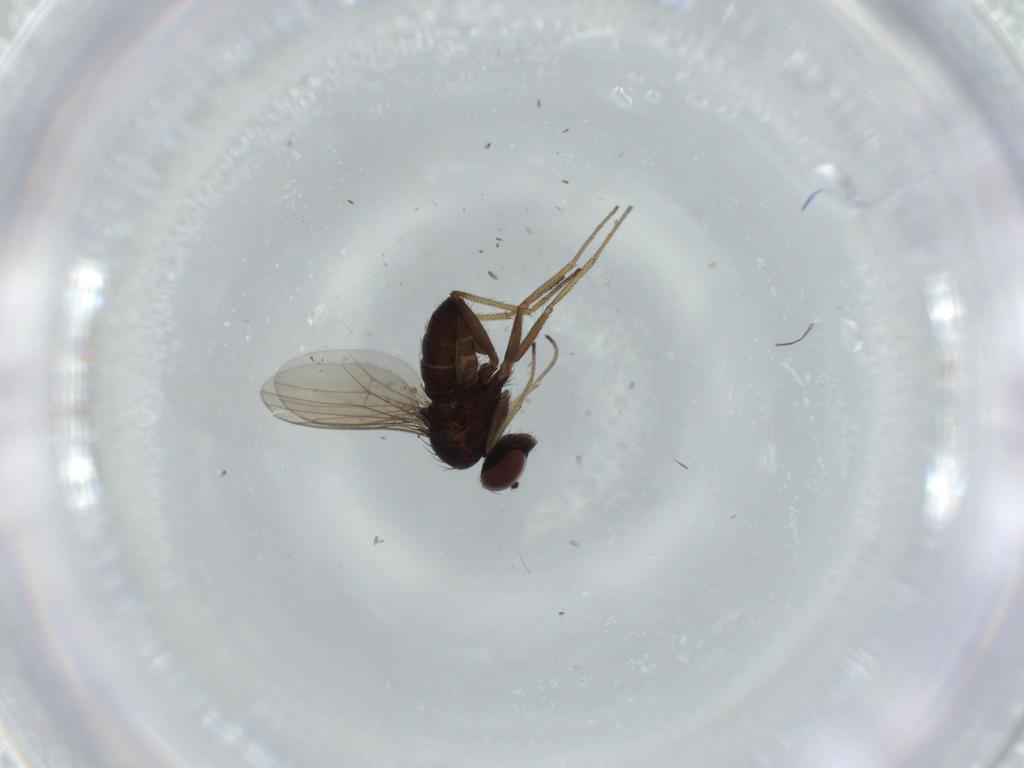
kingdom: Animalia
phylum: Arthropoda
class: Insecta
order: Diptera
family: Dolichopodidae
